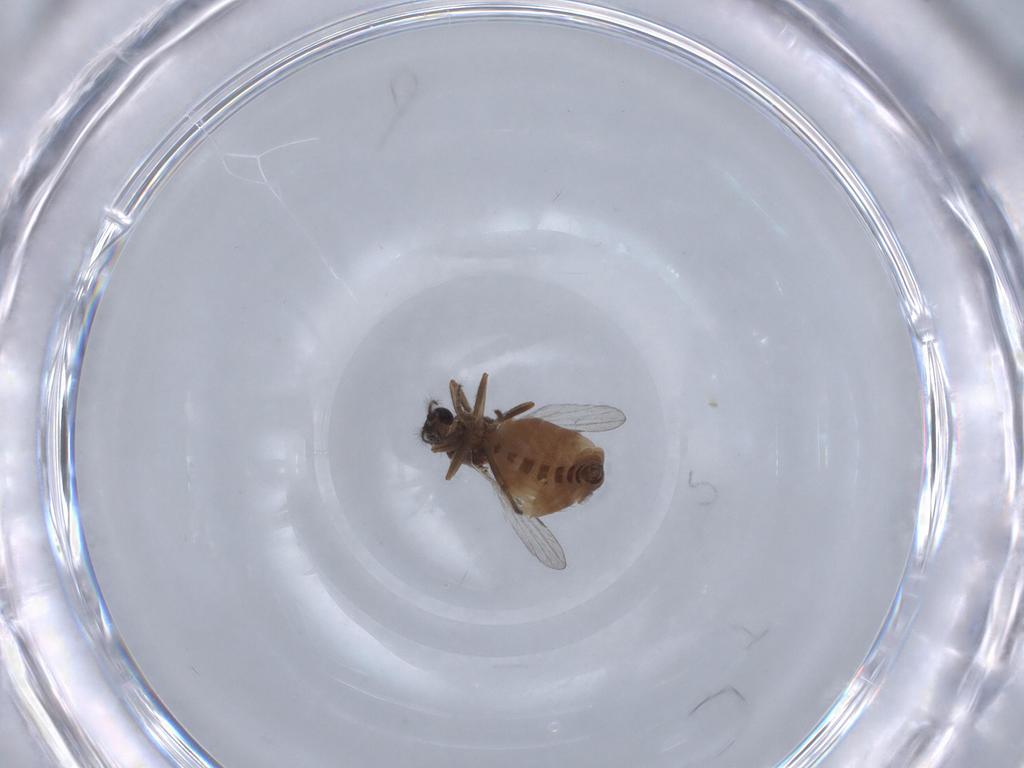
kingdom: Animalia
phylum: Arthropoda
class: Insecta
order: Diptera
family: Ceratopogonidae
